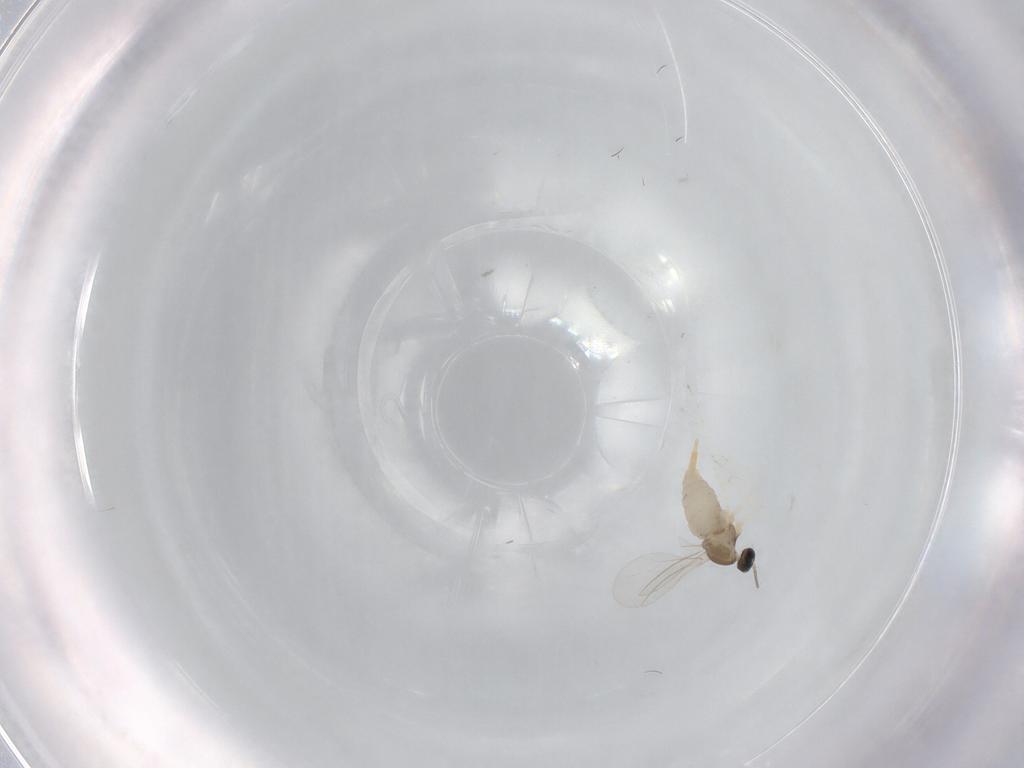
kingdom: Animalia
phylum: Arthropoda
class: Insecta
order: Diptera
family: Cecidomyiidae
